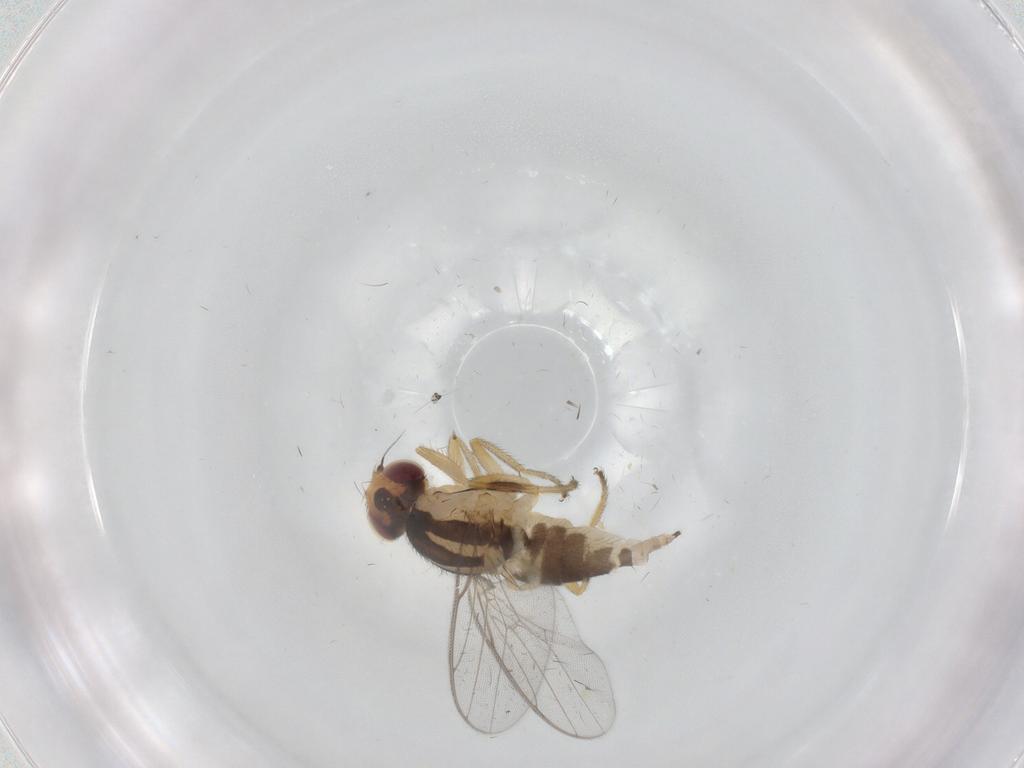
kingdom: Animalia
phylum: Arthropoda
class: Insecta
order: Diptera
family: Chloropidae
